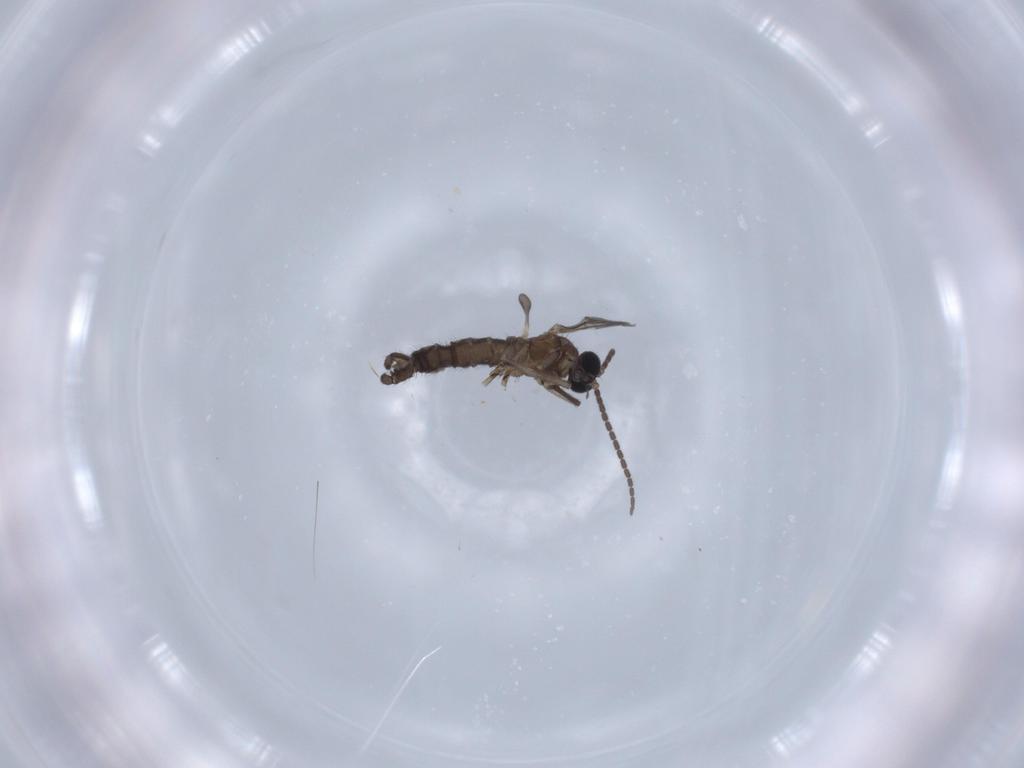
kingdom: Animalia
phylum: Arthropoda
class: Insecta
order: Diptera
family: Sciaridae
